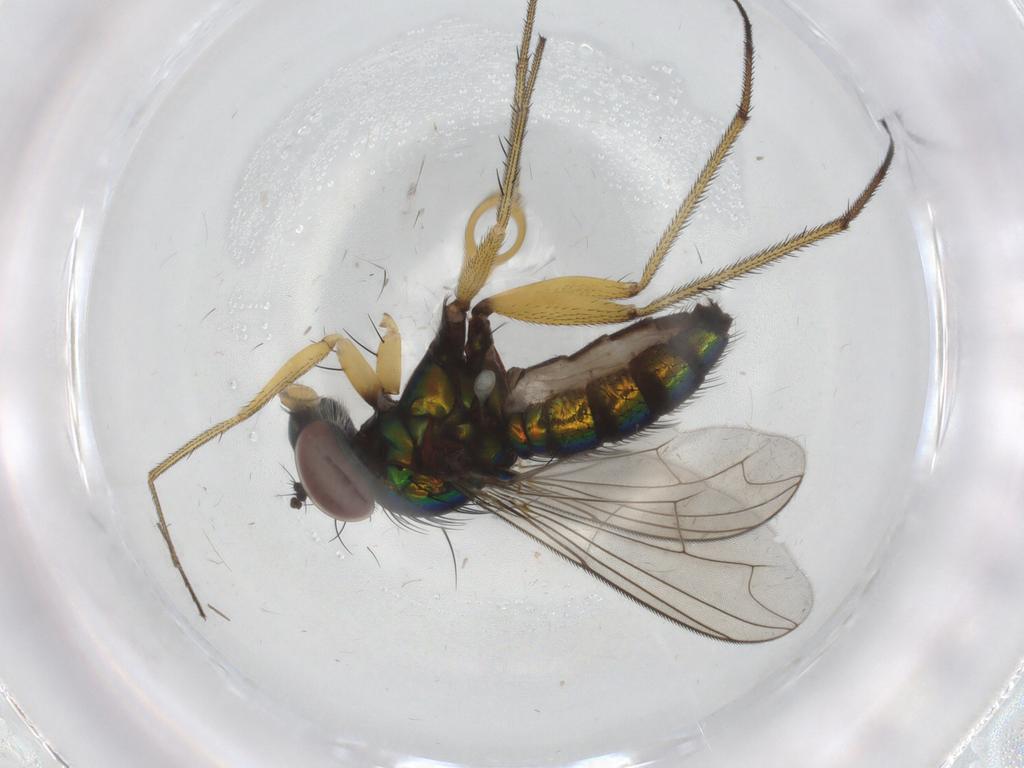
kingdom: Animalia
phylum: Arthropoda
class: Insecta
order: Diptera
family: Dolichopodidae
